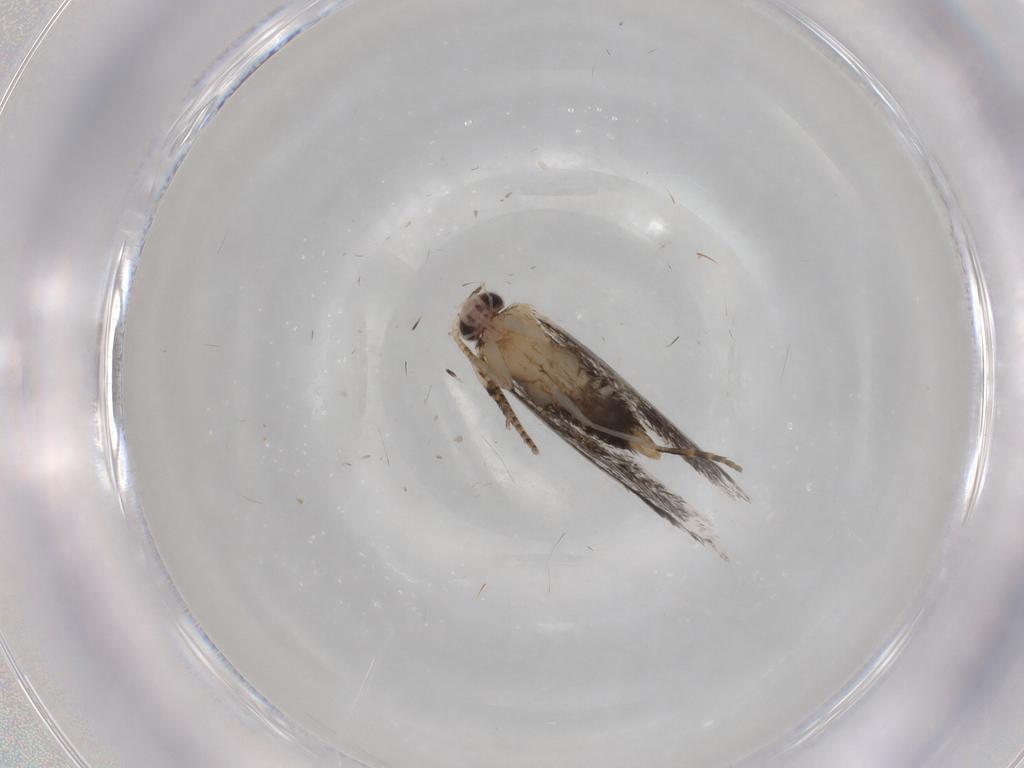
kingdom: Animalia
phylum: Arthropoda
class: Insecta
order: Lepidoptera
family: Tineidae
